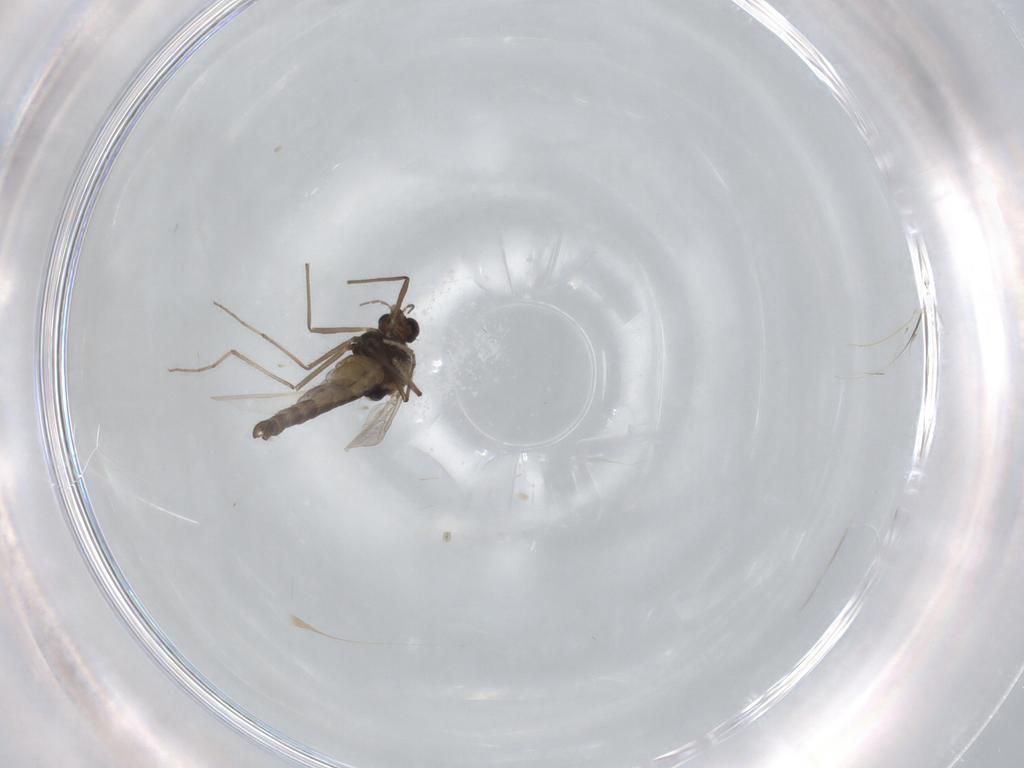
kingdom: Animalia
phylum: Arthropoda
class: Insecta
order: Diptera
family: Chironomidae
